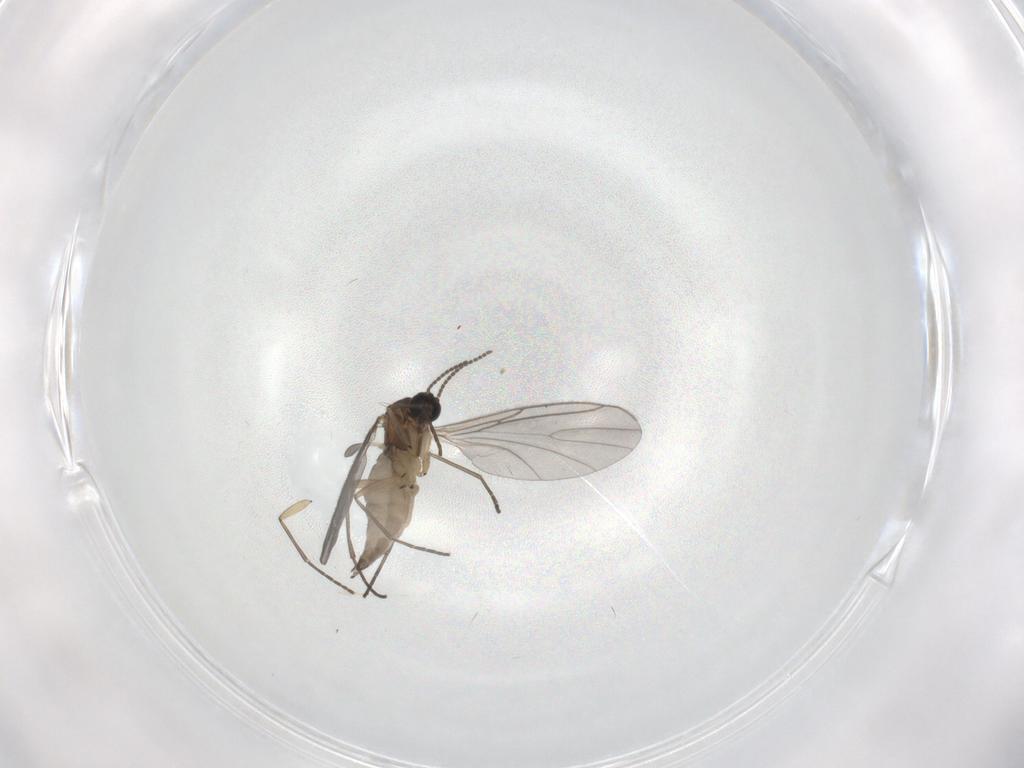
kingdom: Animalia
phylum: Arthropoda
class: Insecta
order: Diptera
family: Sciaridae
